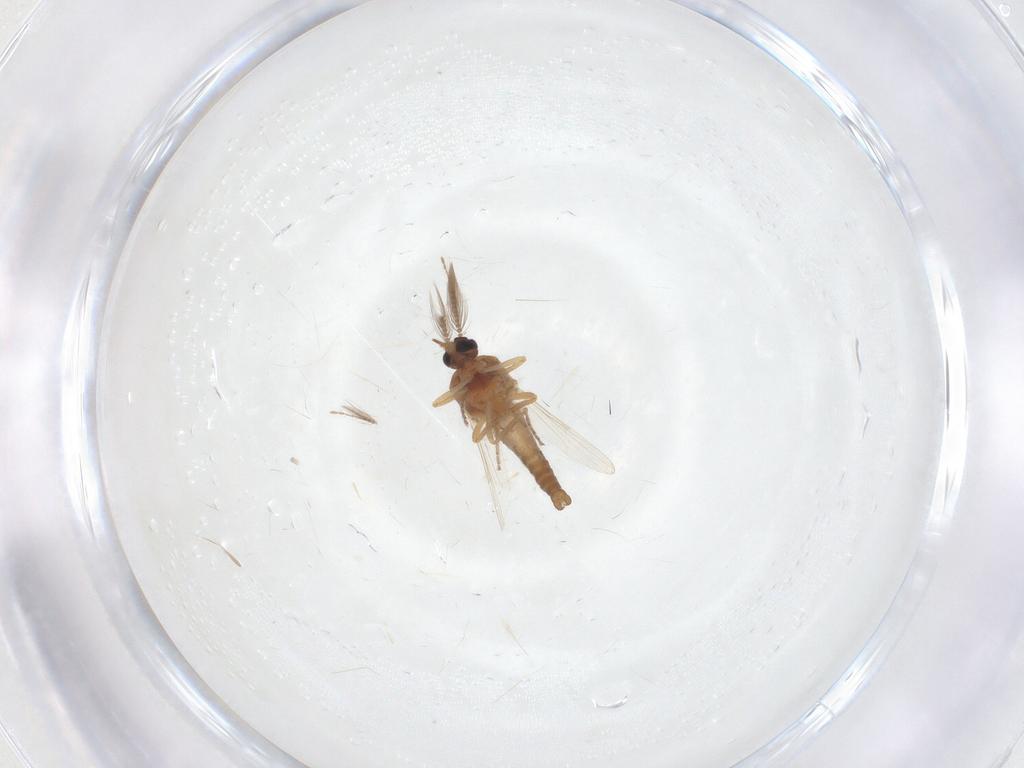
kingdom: Animalia
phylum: Arthropoda
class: Insecta
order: Diptera
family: Ceratopogonidae
